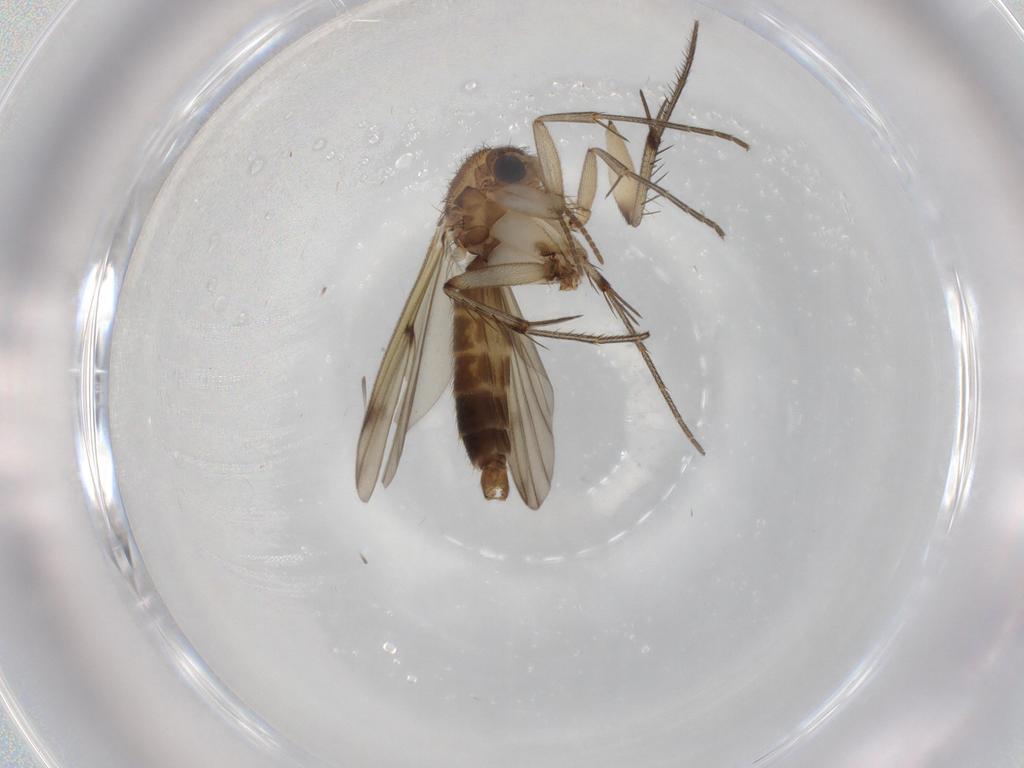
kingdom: Animalia
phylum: Arthropoda
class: Insecta
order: Diptera
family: Mycetophilidae
